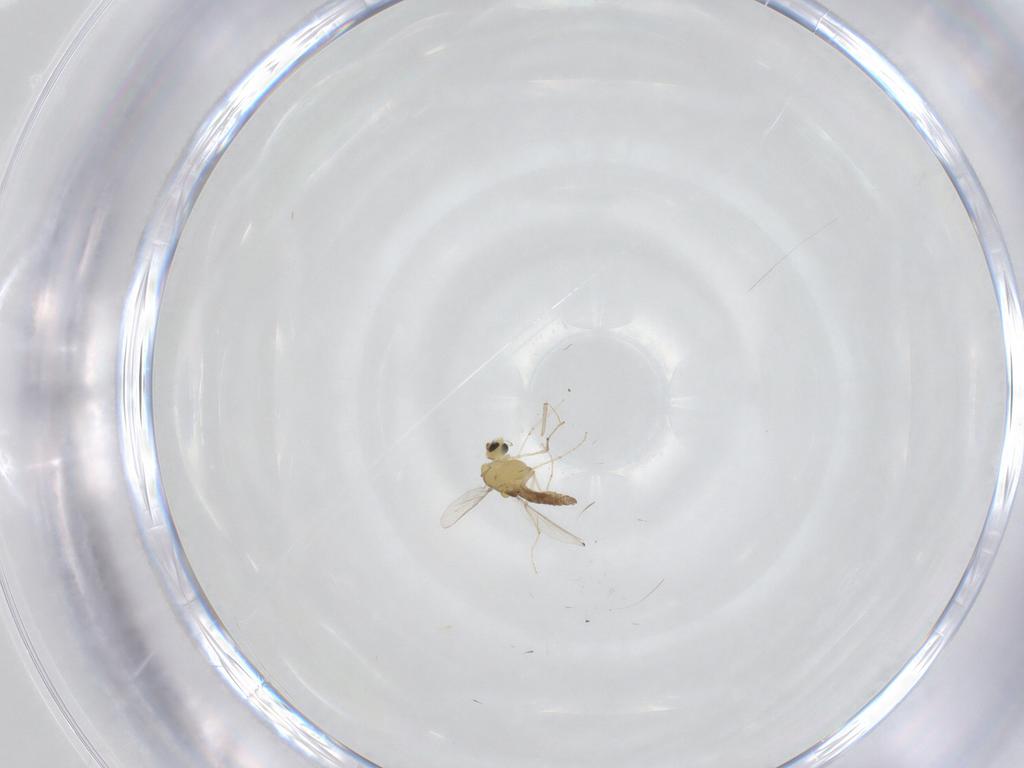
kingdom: Animalia
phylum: Arthropoda
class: Insecta
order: Diptera
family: Cecidomyiidae
